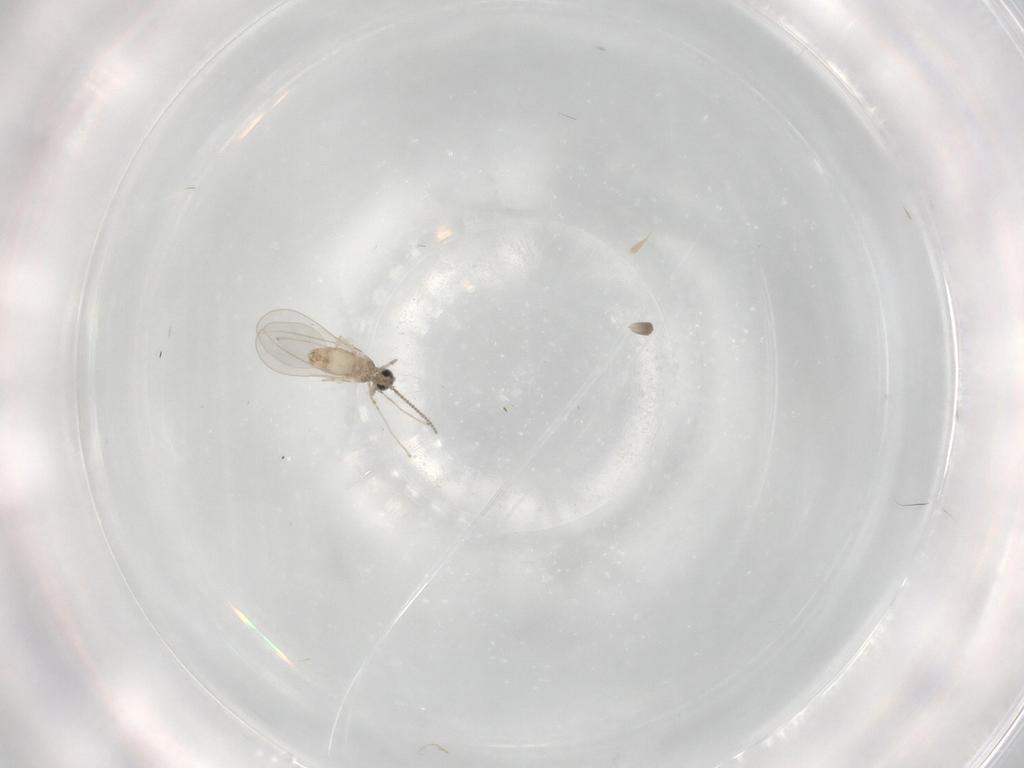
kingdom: Animalia
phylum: Arthropoda
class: Insecta
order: Diptera
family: Cecidomyiidae
